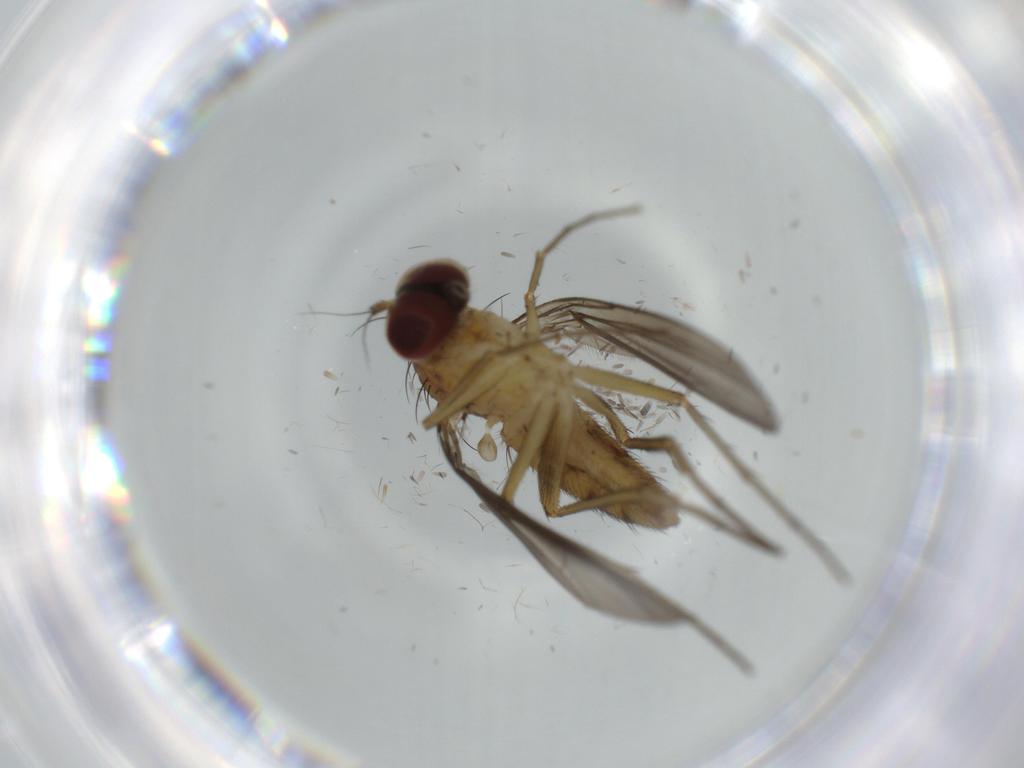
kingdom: Animalia
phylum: Arthropoda
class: Insecta
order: Diptera
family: Dolichopodidae
